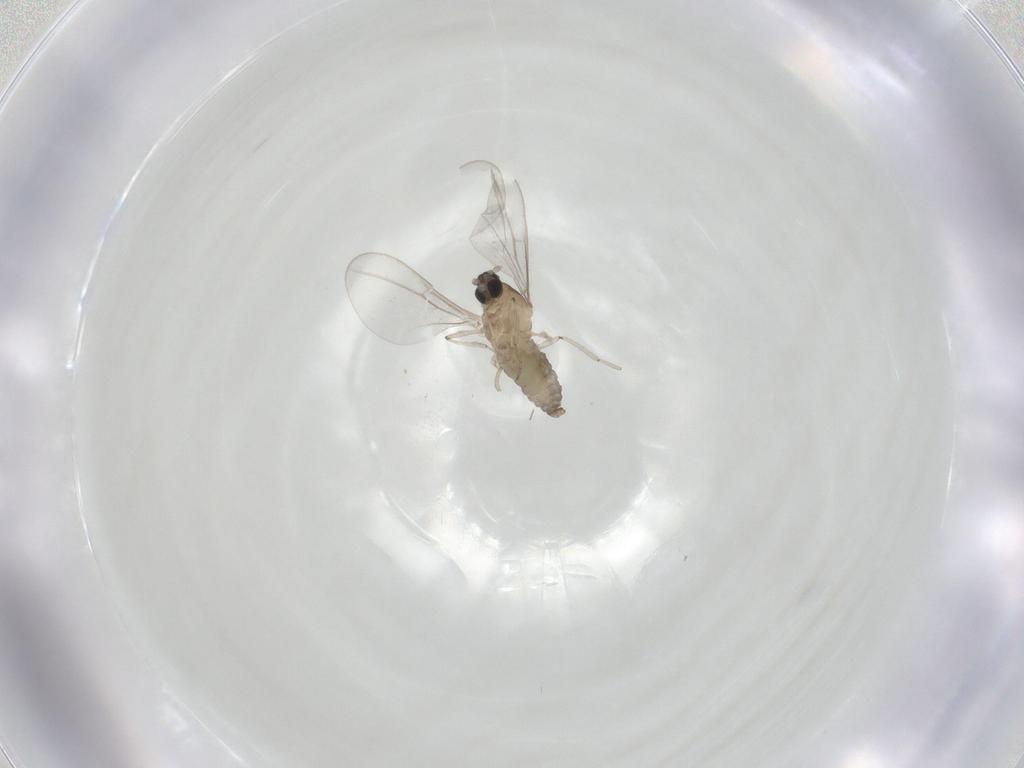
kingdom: Animalia
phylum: Arthropoda
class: Insecta
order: Diptera
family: Cecidomyiidae
